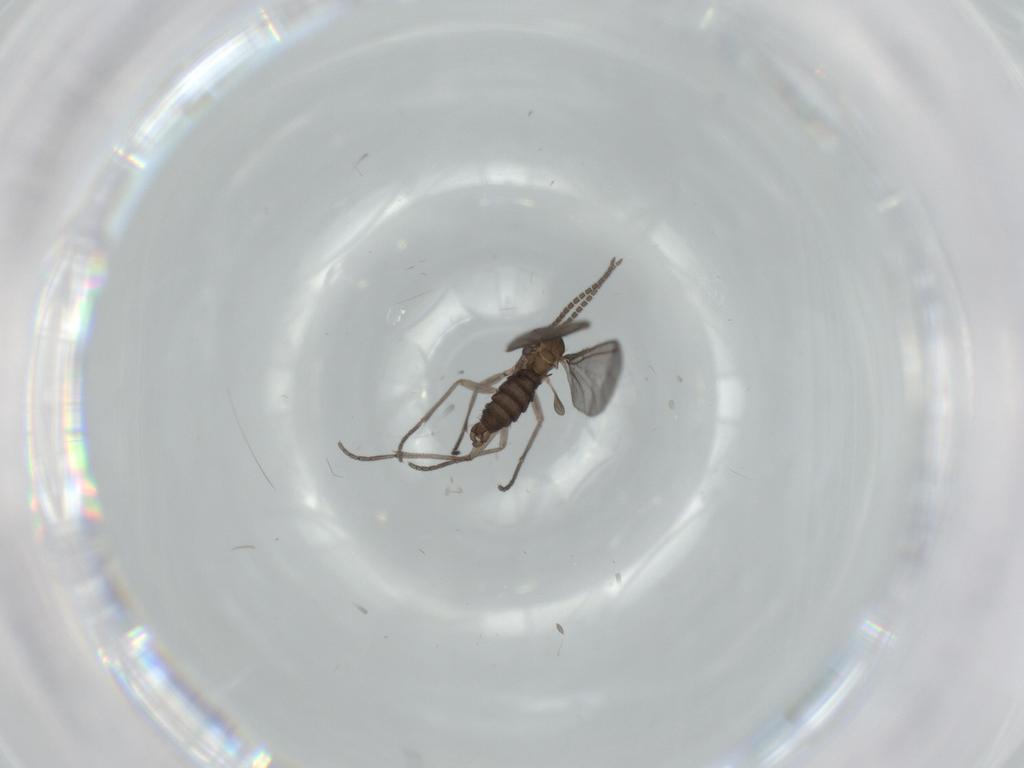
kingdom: Animalia
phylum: Arthropoda
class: Insecta
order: Diptera
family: Sciaridae
